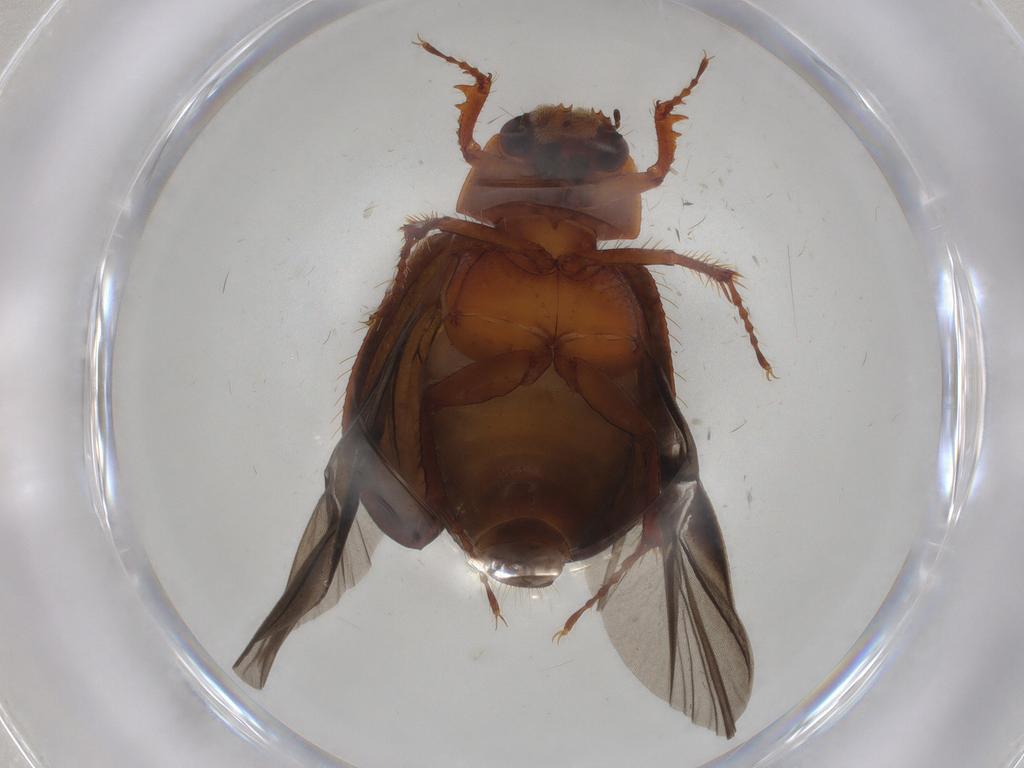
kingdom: Animalia
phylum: Arthropoda
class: Insecta
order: Coleoptera
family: Hybosoridae
